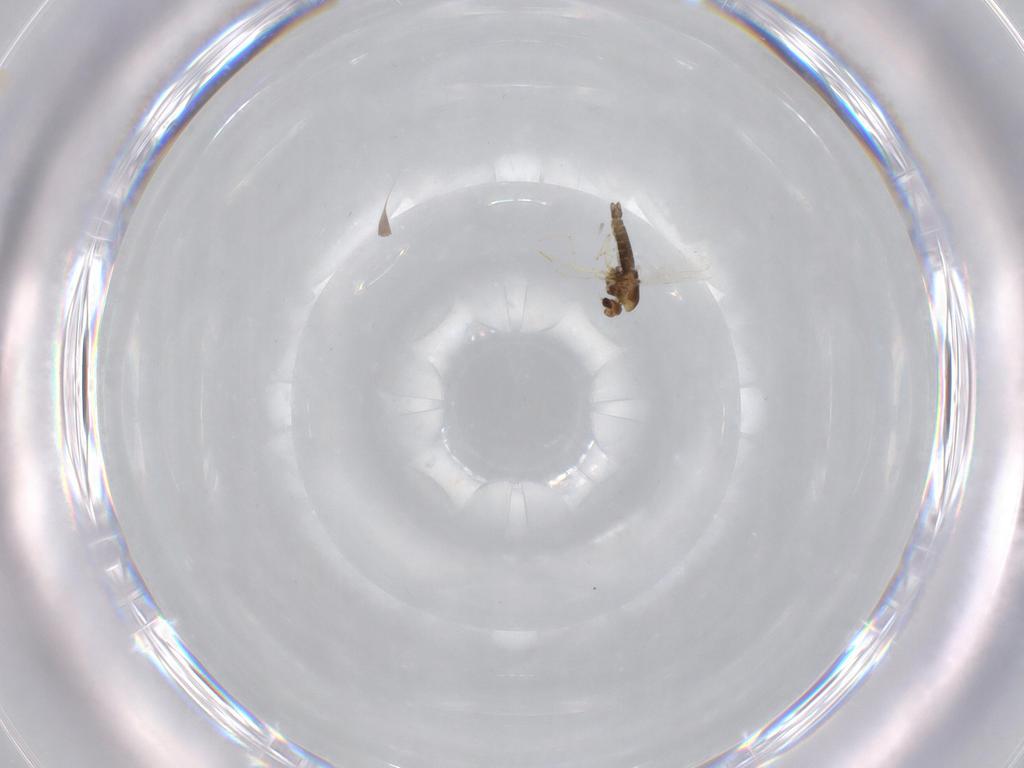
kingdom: Animalia
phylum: Arthropoda
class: Insecta
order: Diptera
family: Chironomidae
